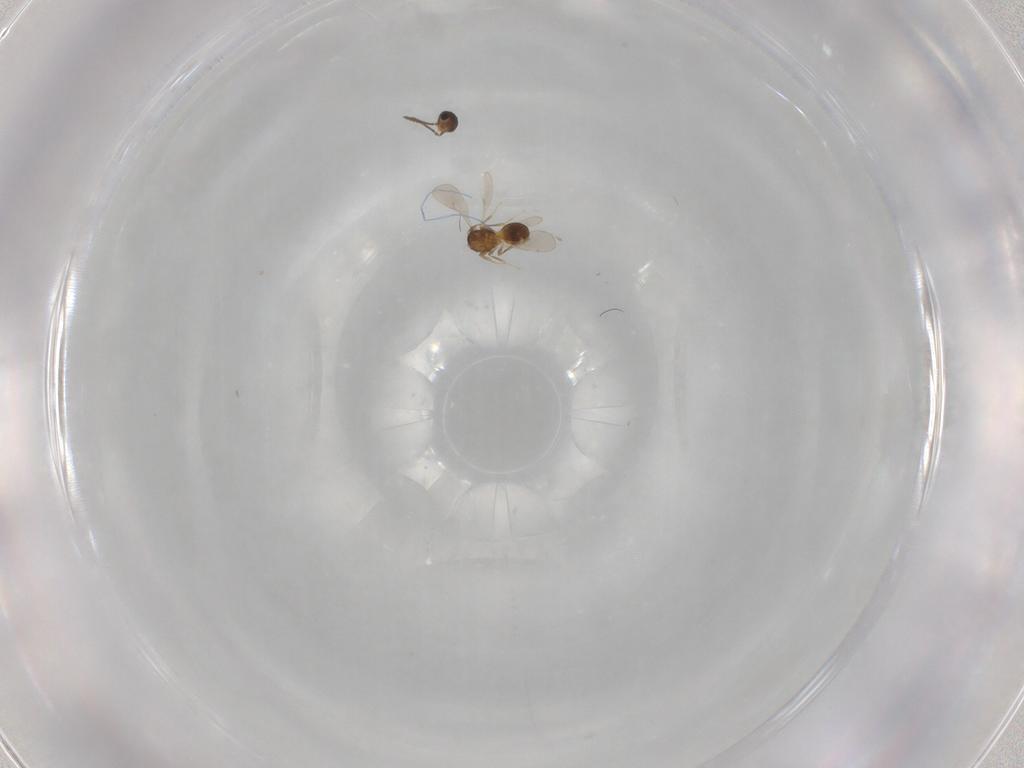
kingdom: Animalia
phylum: Arthropoda
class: Insecta
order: Hymenoptera
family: Scelionidae
